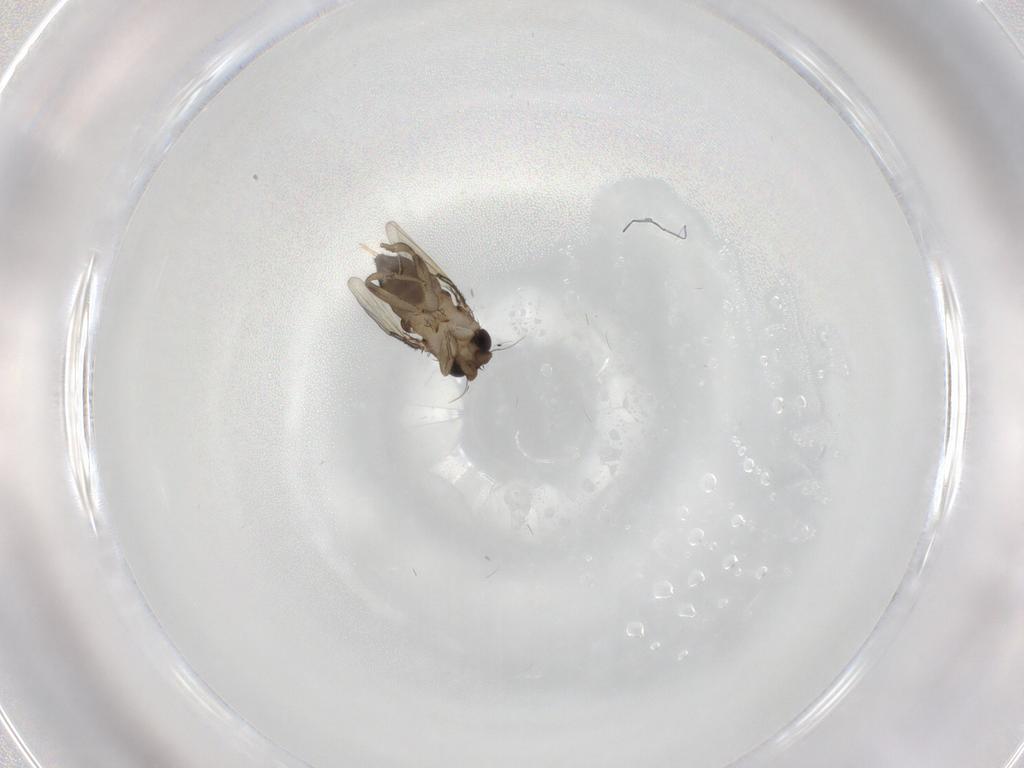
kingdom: Animalia
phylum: Arthropoda
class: Insecta
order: Diptera
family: Phoridae
